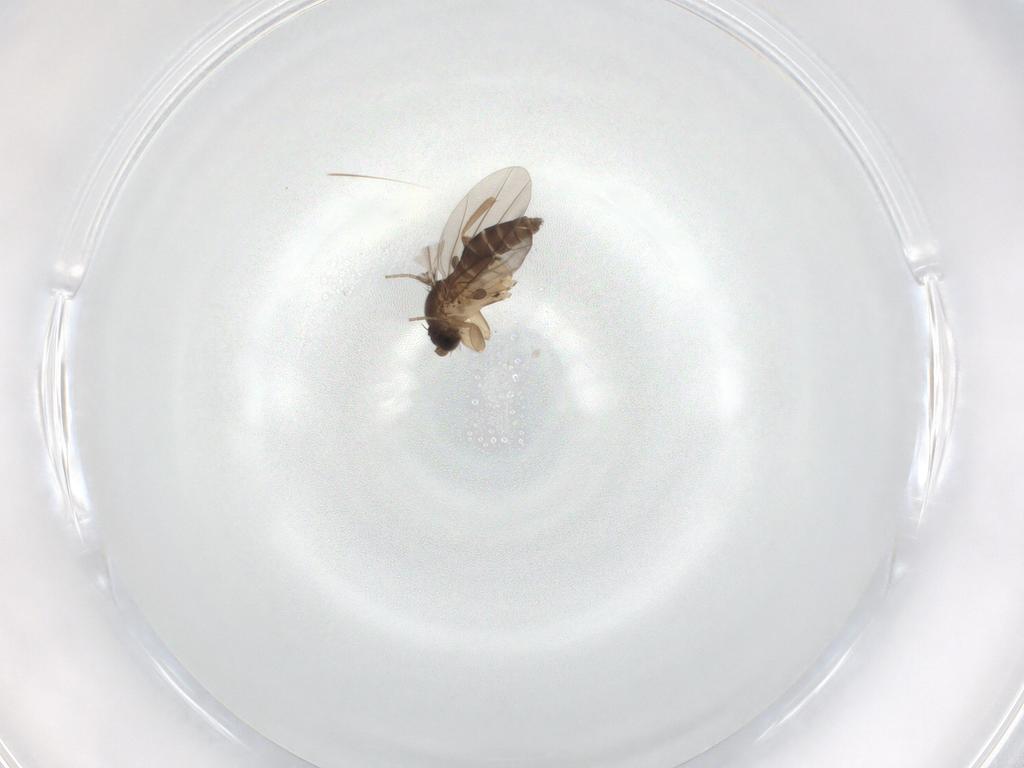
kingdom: Animalia
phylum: Arthropoda
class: Insecta
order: Diptera
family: Phoridae
